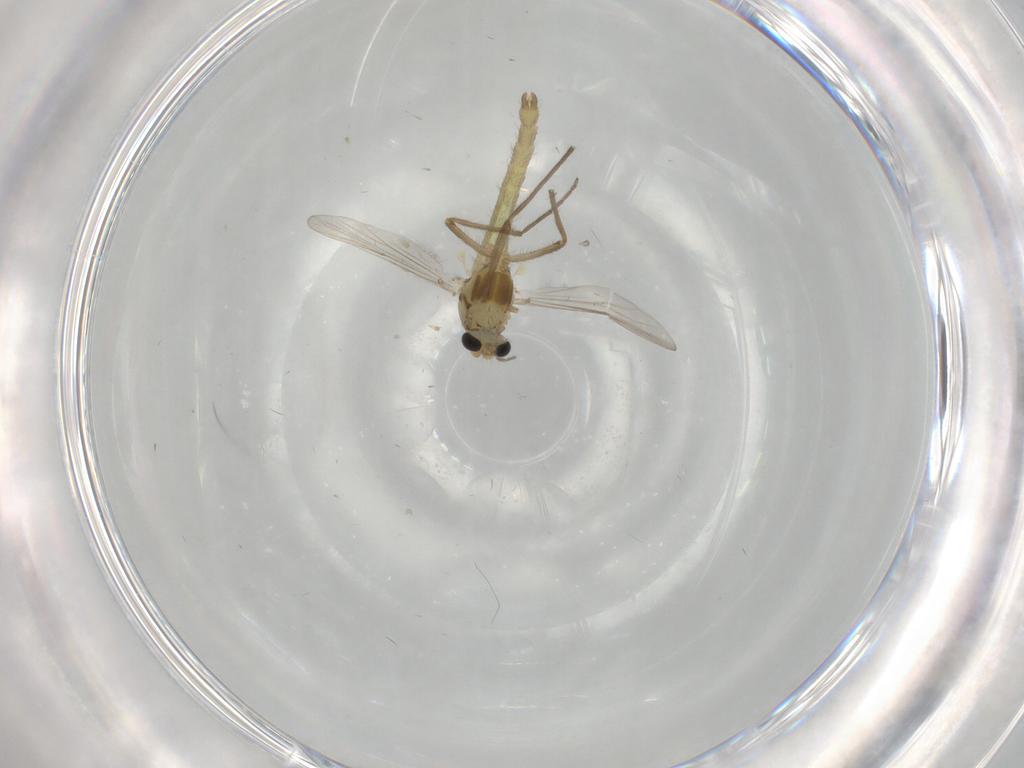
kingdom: Animalia
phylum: Arthropoda
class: Insecta
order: Diptera
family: Chironomidae
